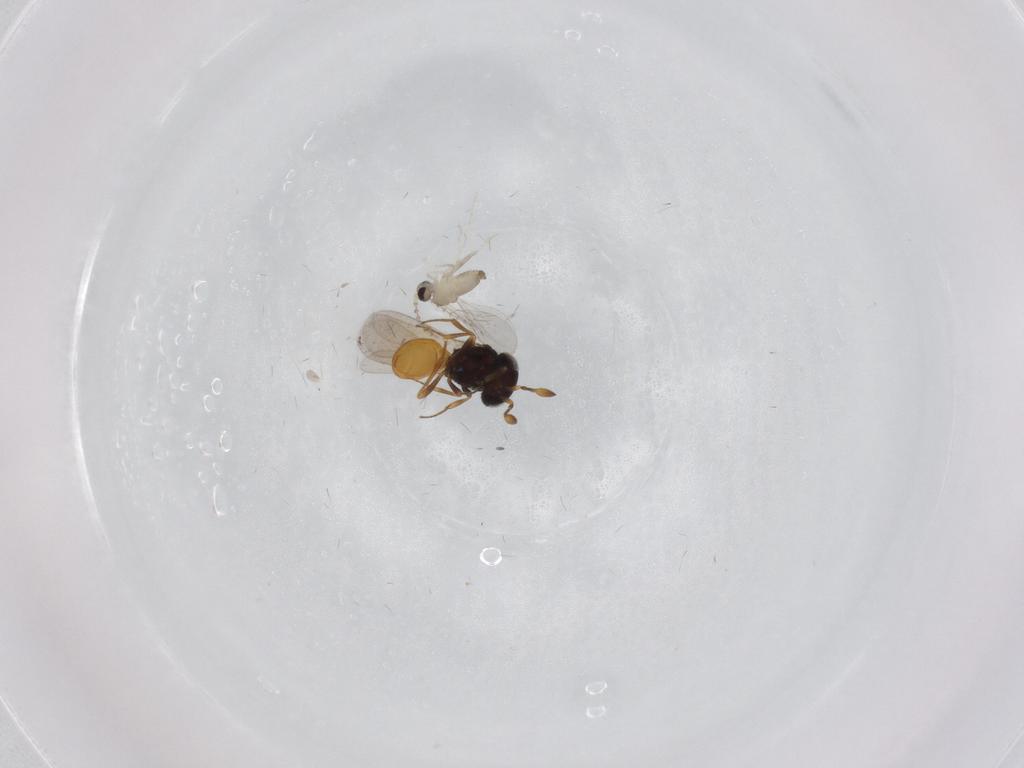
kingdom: Animalia
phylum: Arthropoda
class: Insecta
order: Hymenoptera
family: Scelionidae
